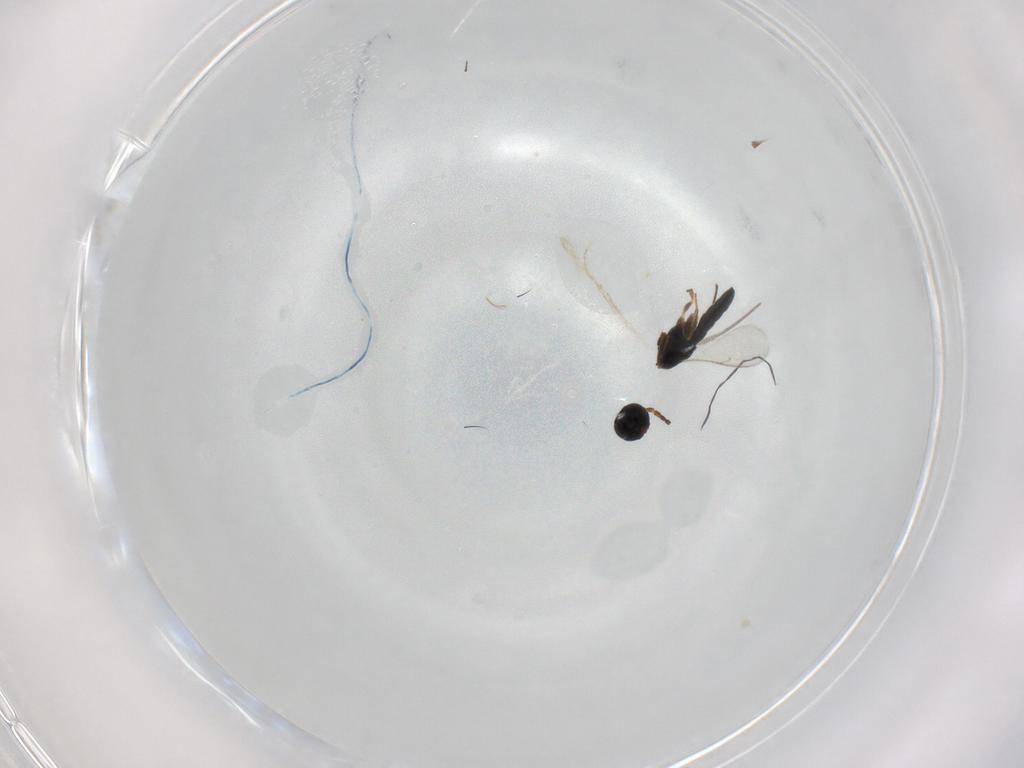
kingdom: Animalia
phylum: Arthropoda
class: Insecta
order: Hymenoptera
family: Scelionidae
